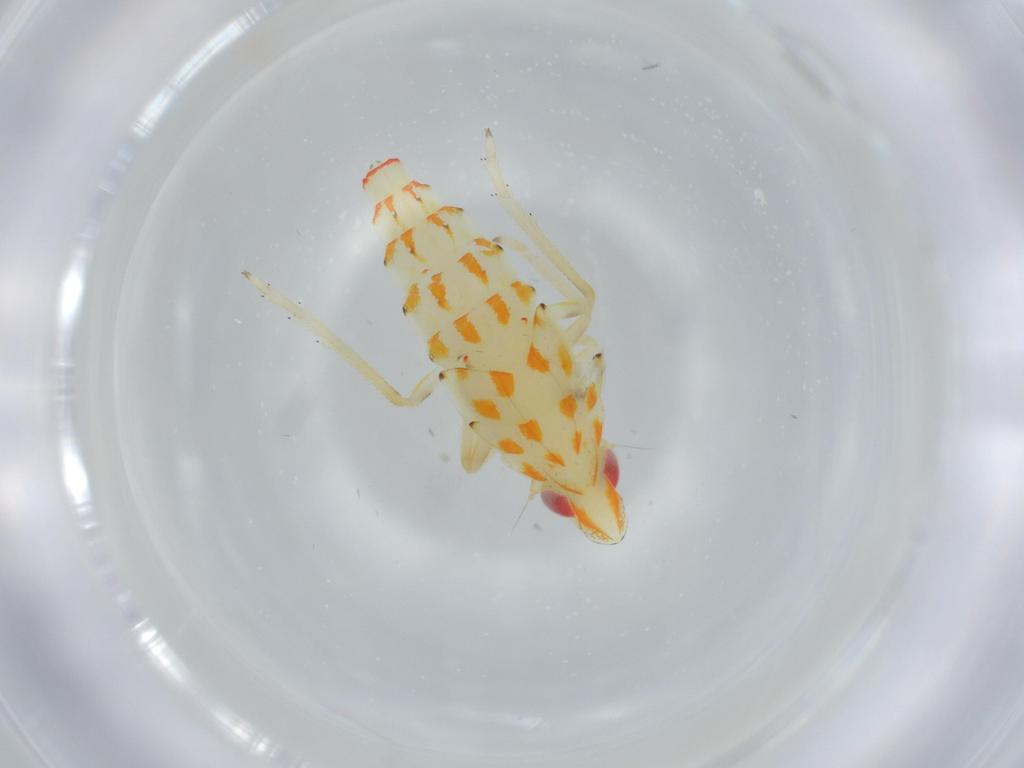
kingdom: Animalia
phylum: Arthropoda
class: Insecta
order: Hemiptera
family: Tropiduchidae
